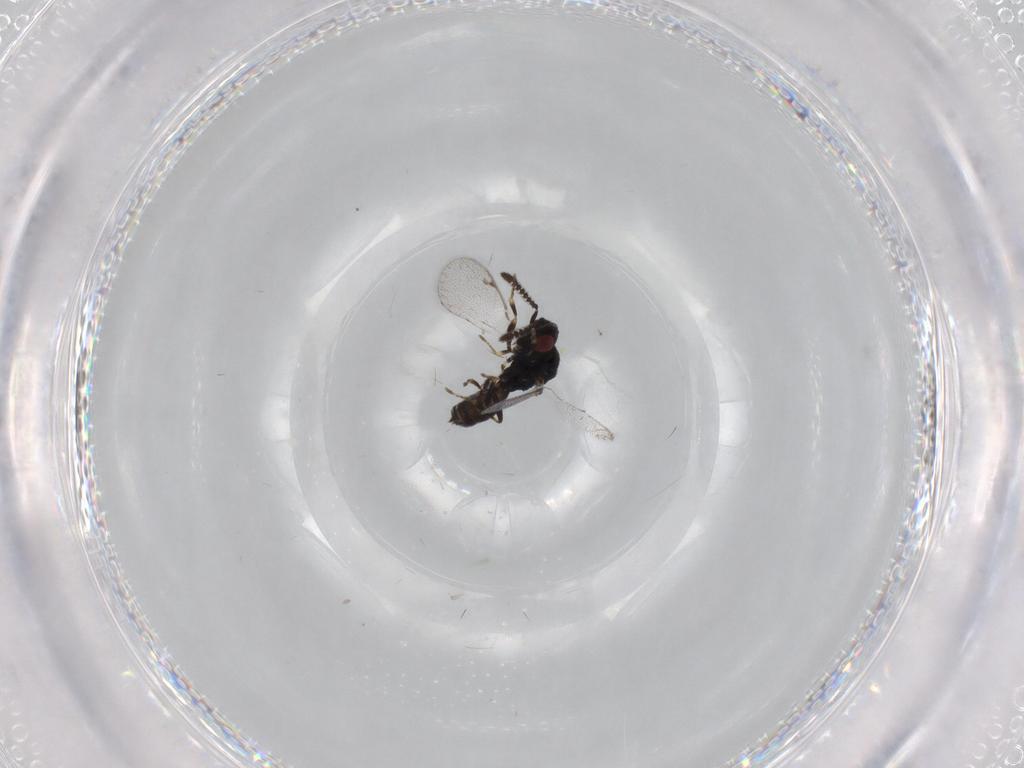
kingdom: Animalia
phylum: Arthropoda
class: Insecta
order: Hymenoptera
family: Pteromalidae
